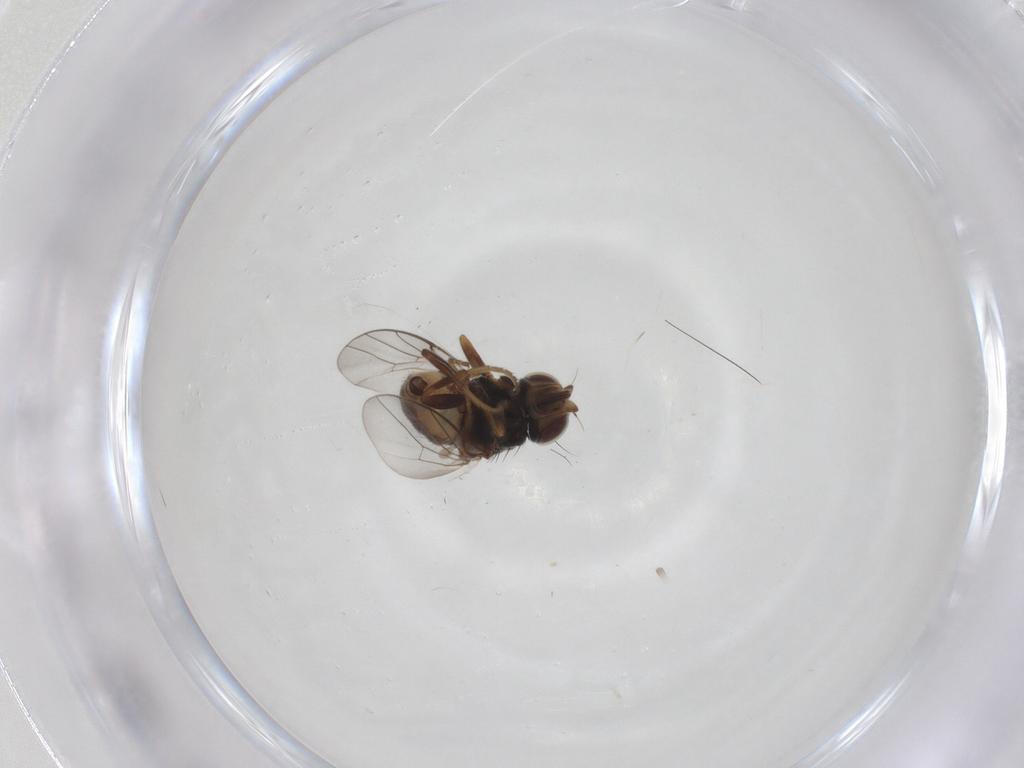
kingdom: Animalia
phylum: Arthropoda
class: Insecta
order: Diptera
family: Chloropidae
